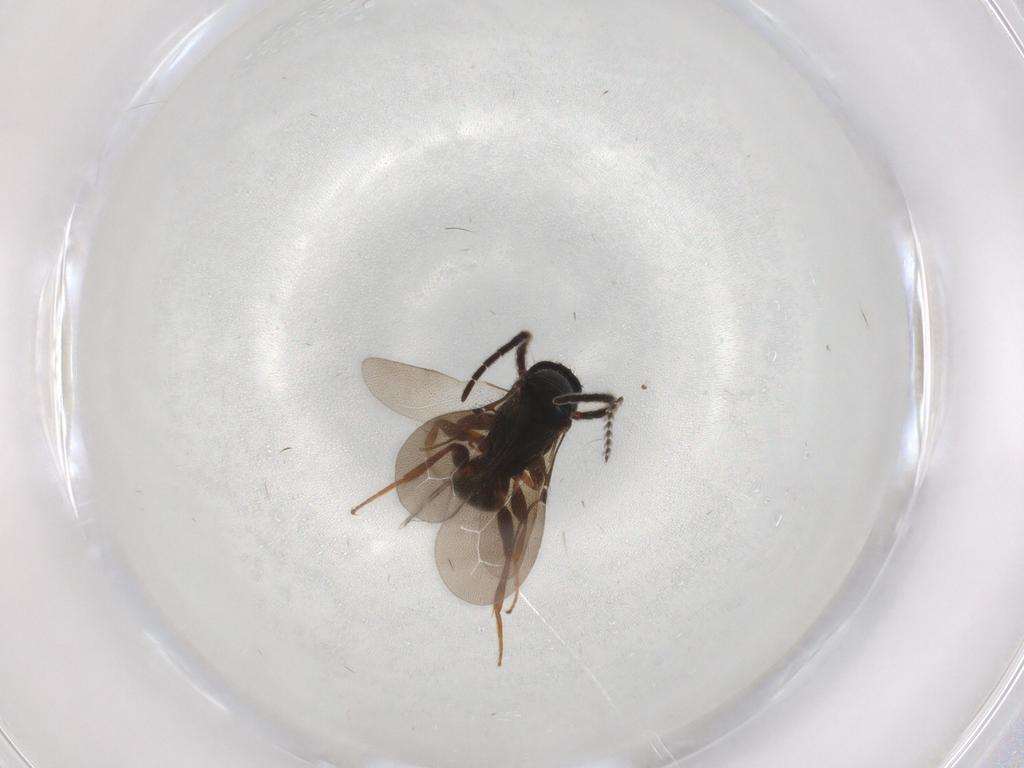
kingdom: Animalia
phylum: Arthropoda
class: Insecta
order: Hymenoptera
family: Bethylidae
